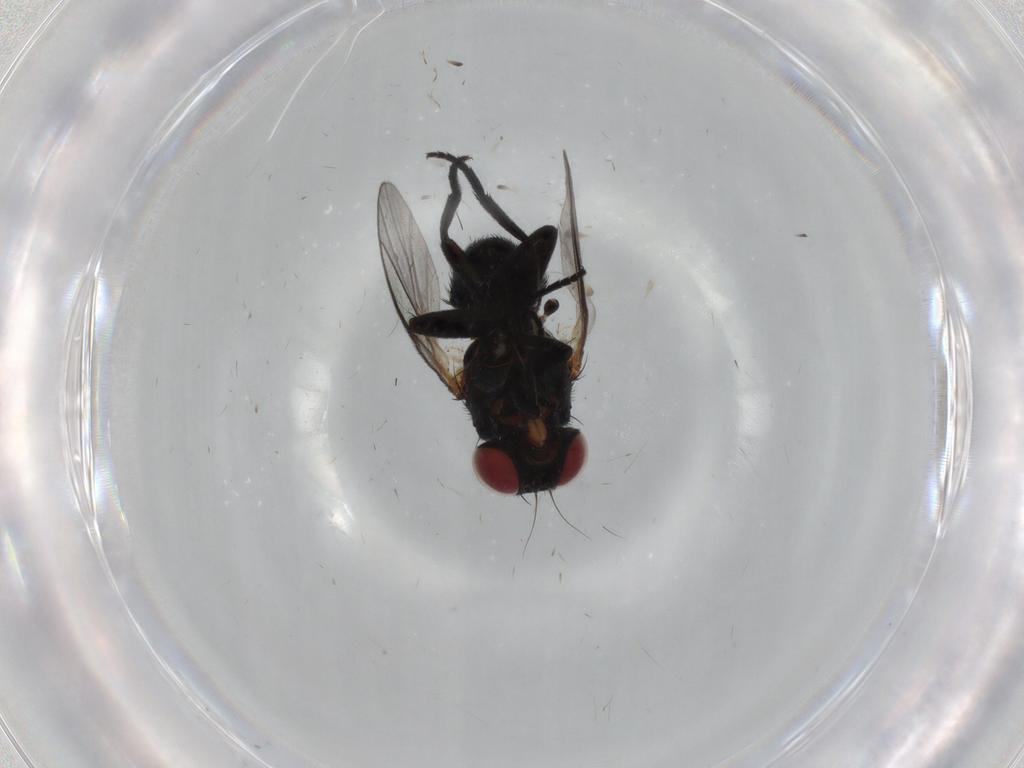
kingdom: Animalia
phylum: Arthropoda
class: Insecta
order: Diptera
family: Agromyzidae
